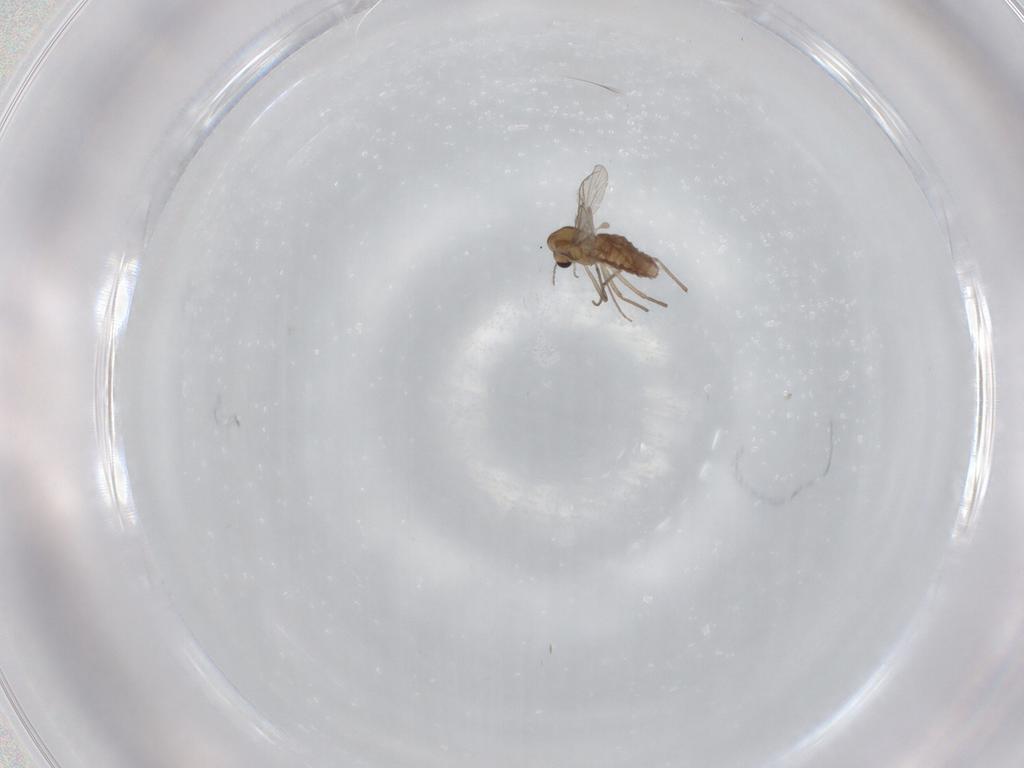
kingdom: Animalia
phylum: Arthropoda
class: Insecta
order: Diptera
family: Chironomidae
